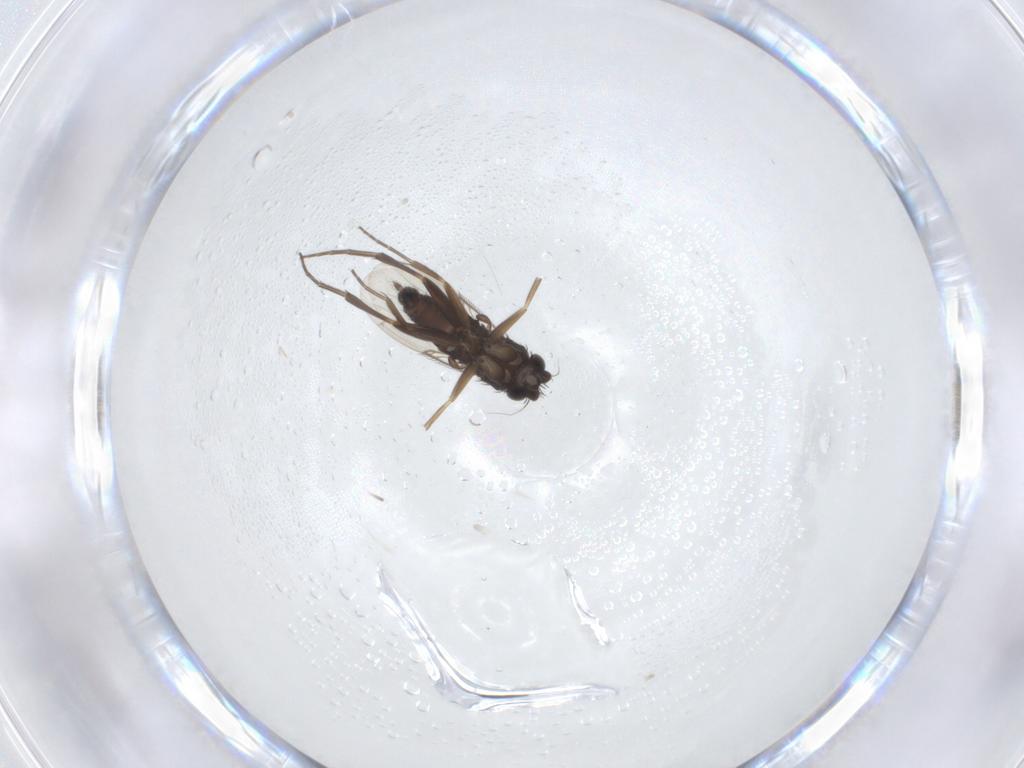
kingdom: Animalia
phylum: Arthropoda
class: Insecta
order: Diptera
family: Phoridae
